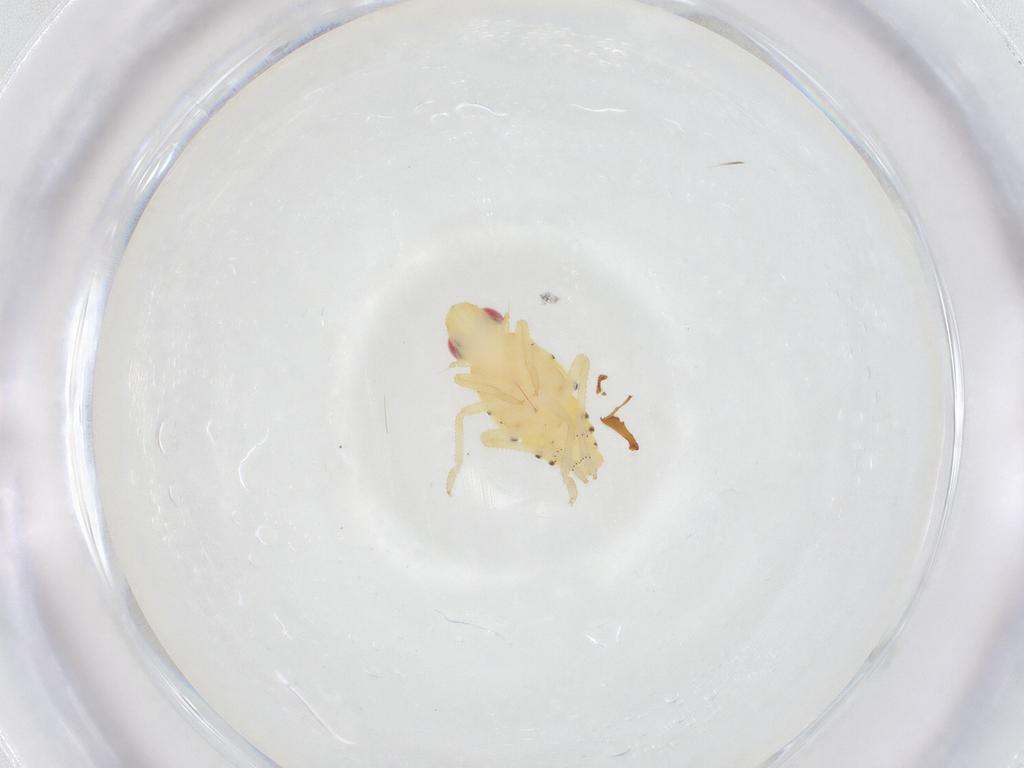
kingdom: Animalia
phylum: Arthropoda
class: Insecta
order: Hemiptera
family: Tropiduchidae
